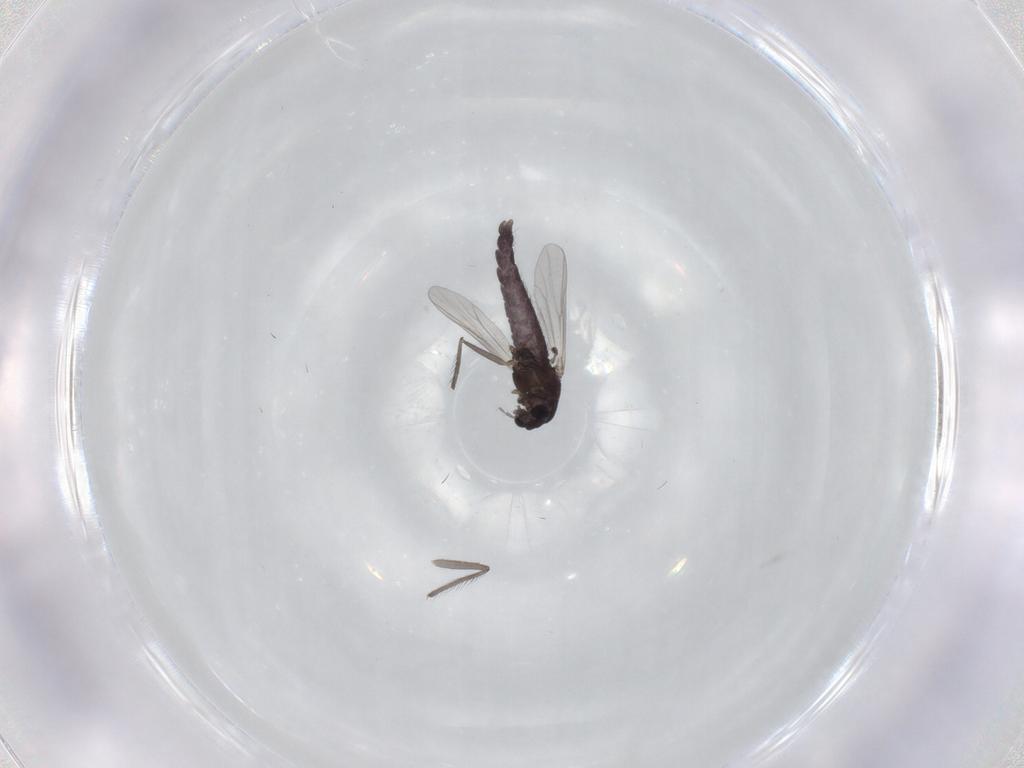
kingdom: Animalia
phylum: Arthropoda
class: Insecta
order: Diptera
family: Chironomidae
